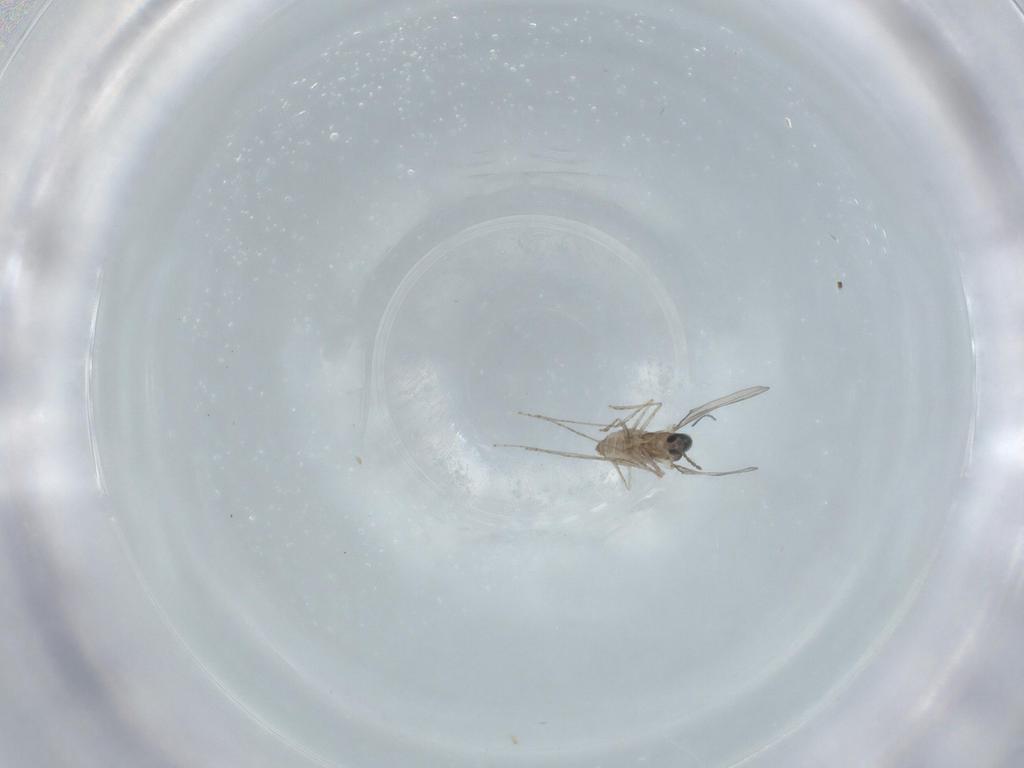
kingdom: Animalia
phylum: Arthropoda
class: Insecta
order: Diptera
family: Cecidomyiidae
